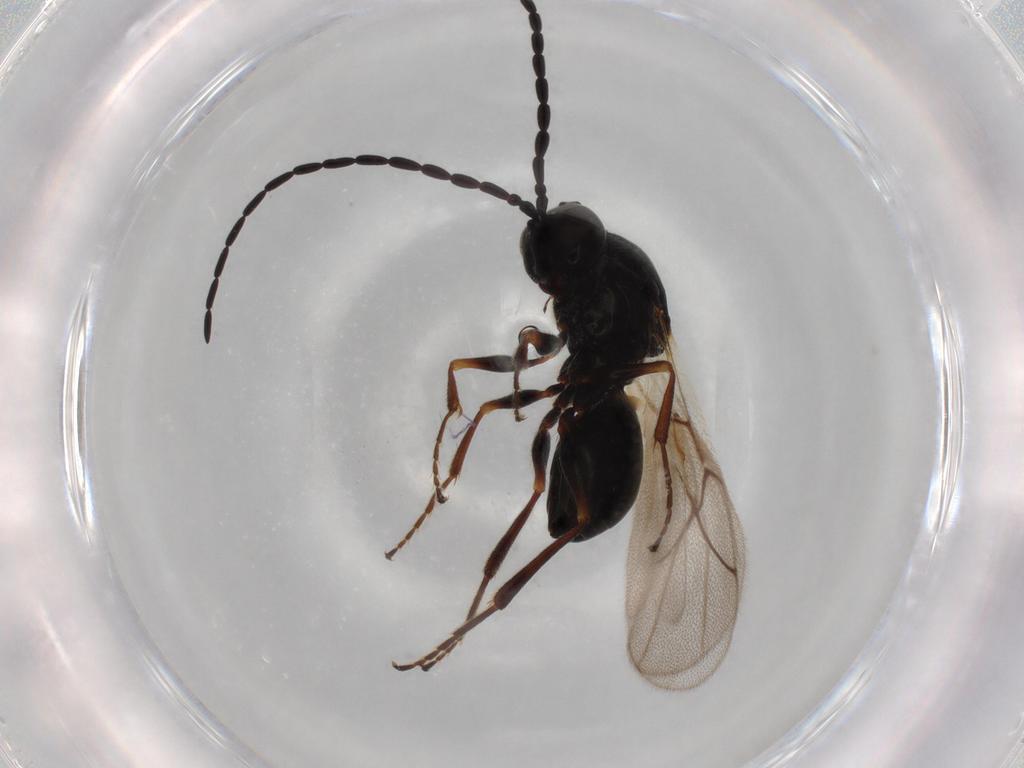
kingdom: Animalia
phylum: Arthropoda
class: Insecta
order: Hymenoptera
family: Figitidae
